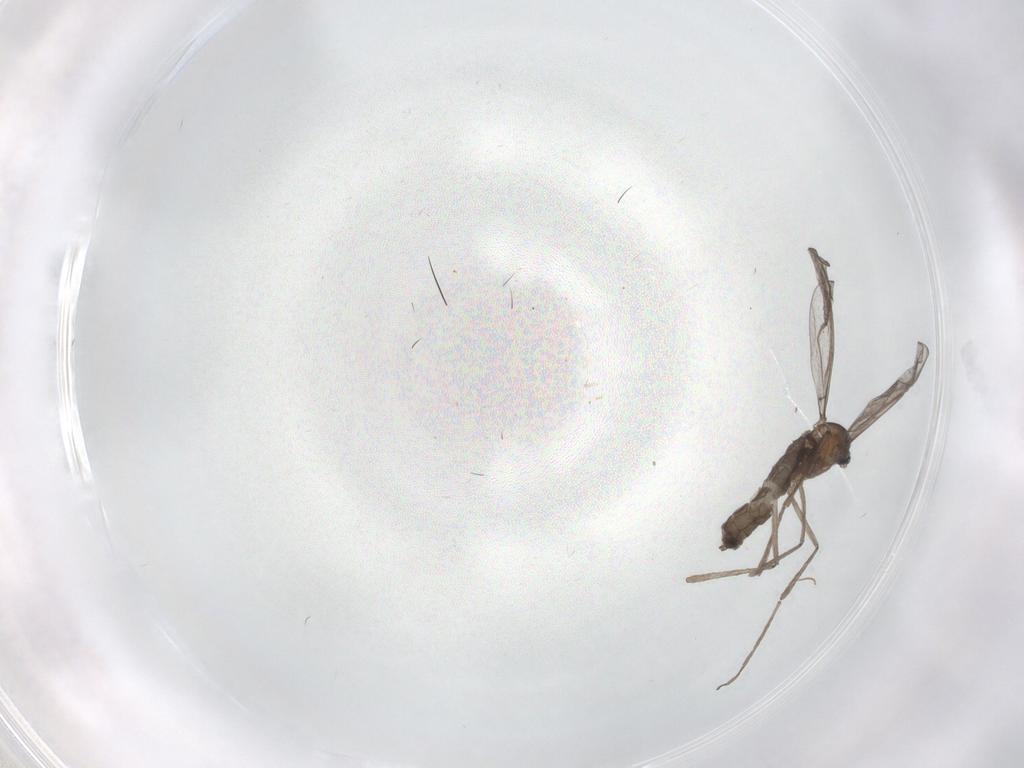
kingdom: Animalia
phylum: Arthropoda
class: Insecta
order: Diptera
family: Cecidomyiidae
